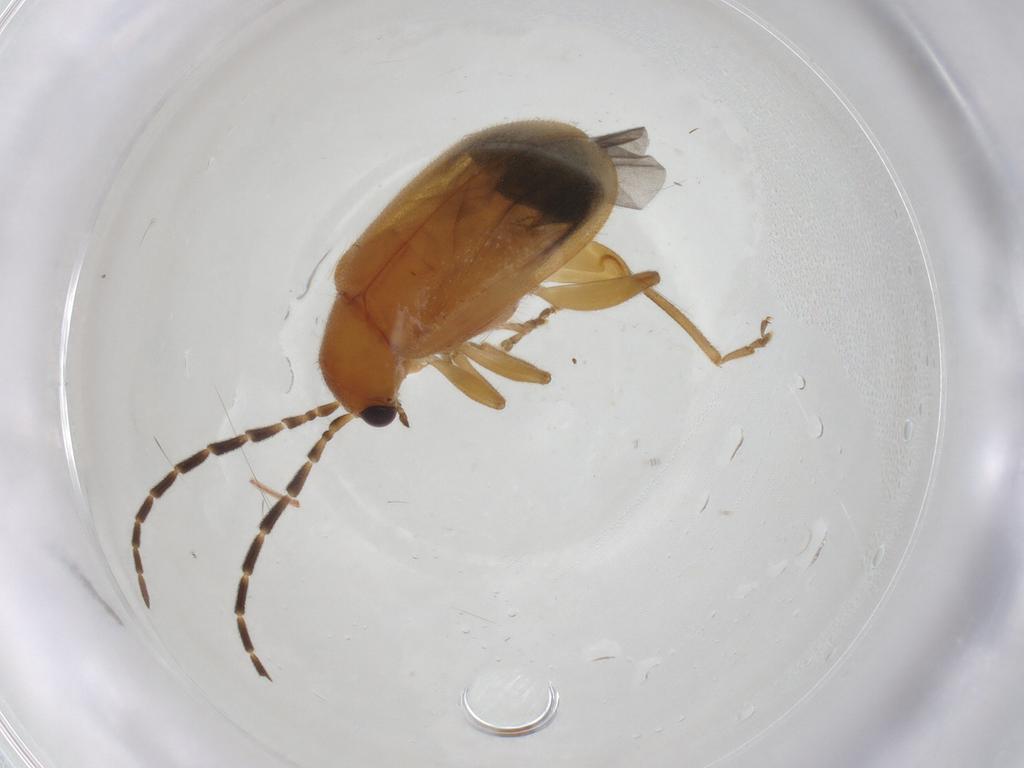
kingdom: Animalia
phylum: Arthropoda
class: Insecta
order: Coleoptera
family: Chrysomelidae
